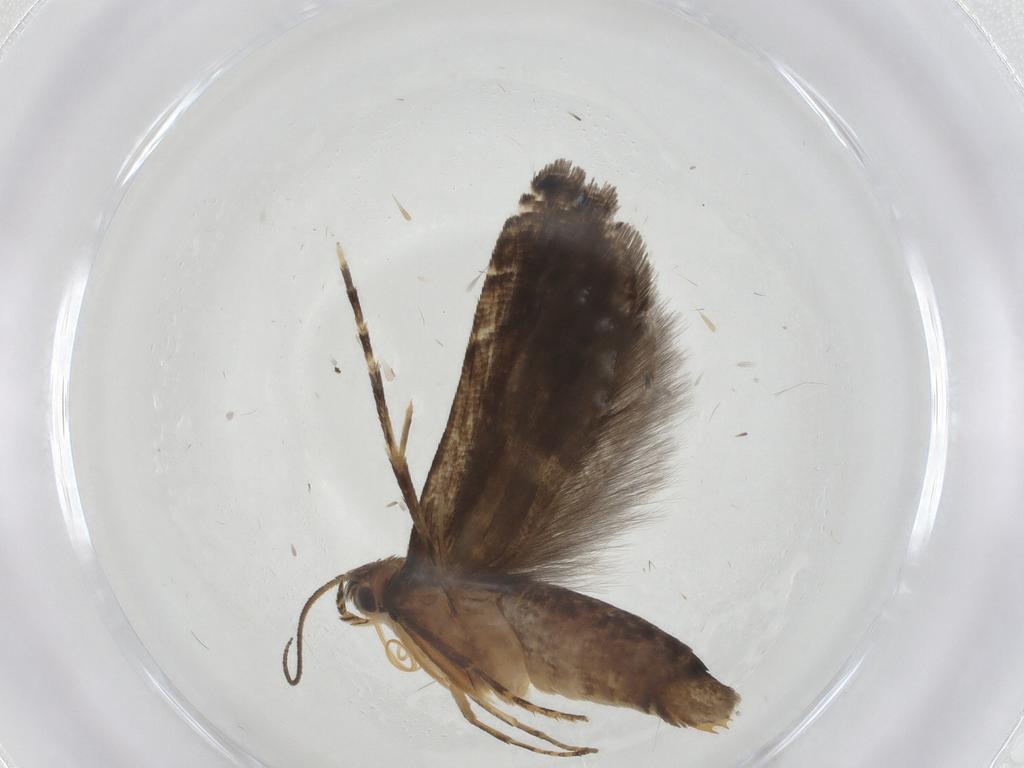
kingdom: Animalia
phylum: Arthropoda
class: Insecta
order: Lepidoptera
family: Glyphipterigidae
